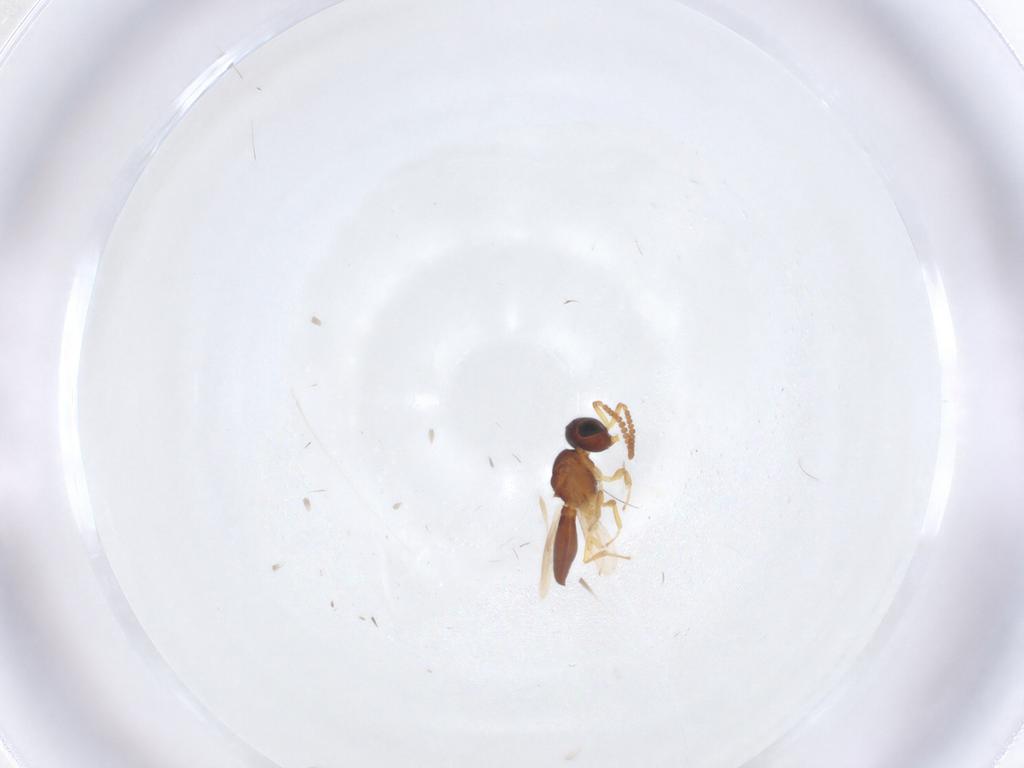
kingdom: Animalia
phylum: Arthropoda
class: Insecta
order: Hymenoptera
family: Scelionidae
